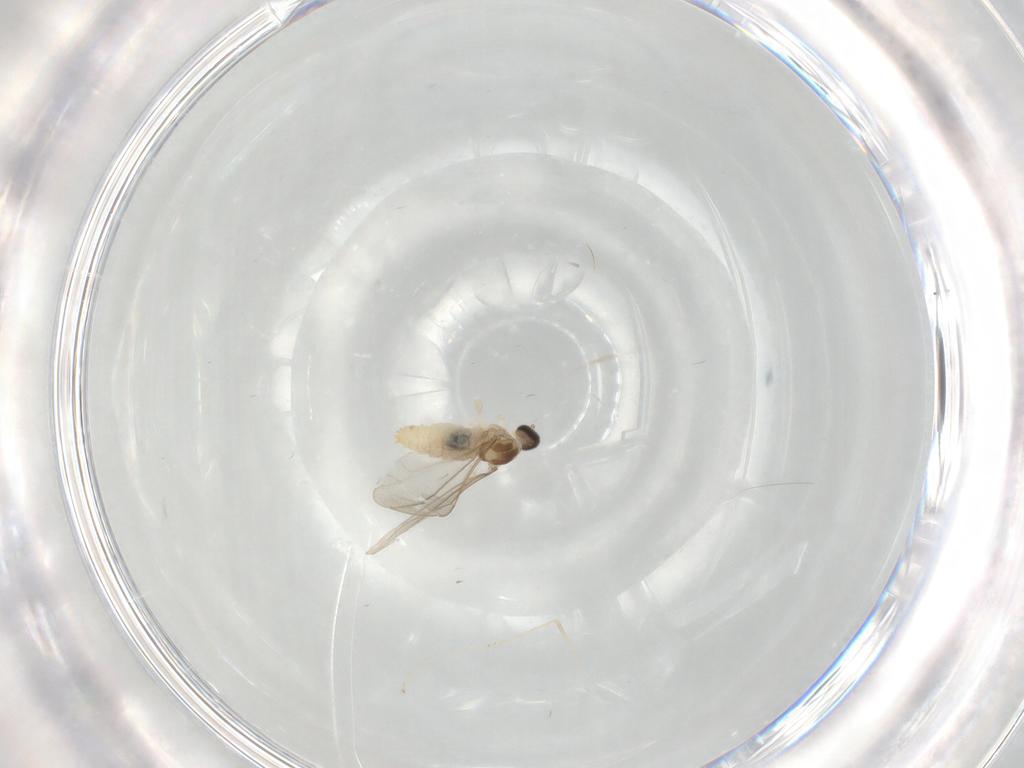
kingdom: Animalia
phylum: Arthropoda
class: Insecta
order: Diptera
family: Cecidomyiidae
